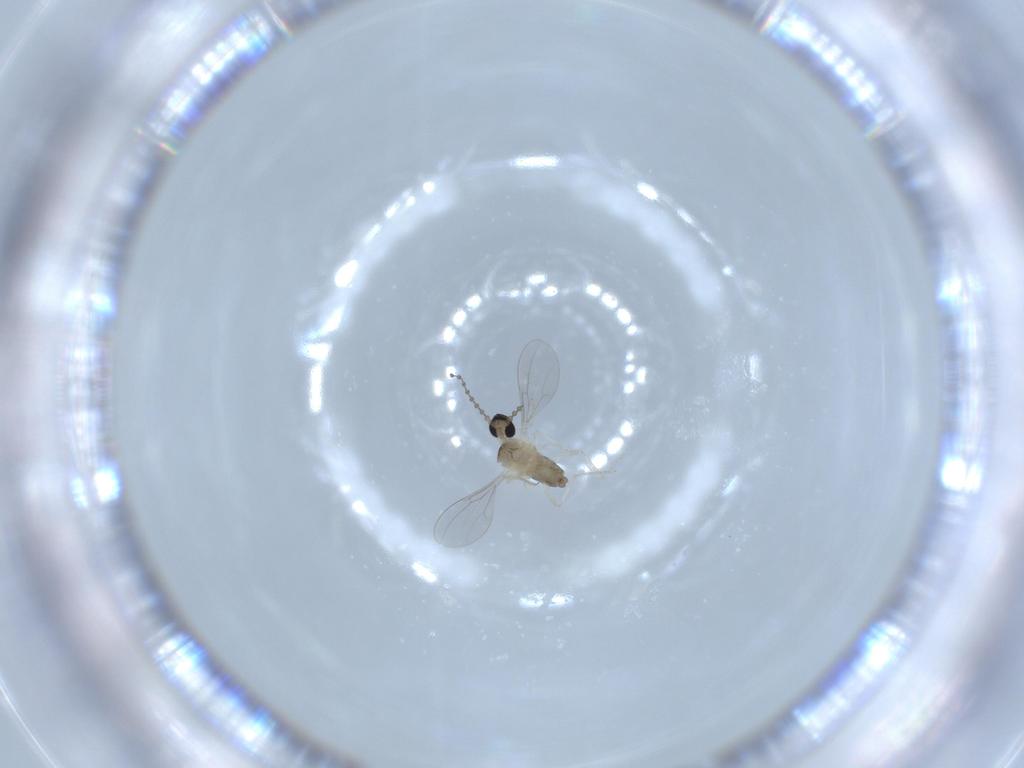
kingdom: Animalia
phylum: Arthropoda
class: Insecta
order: Diptera
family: Cecidomyiidae
